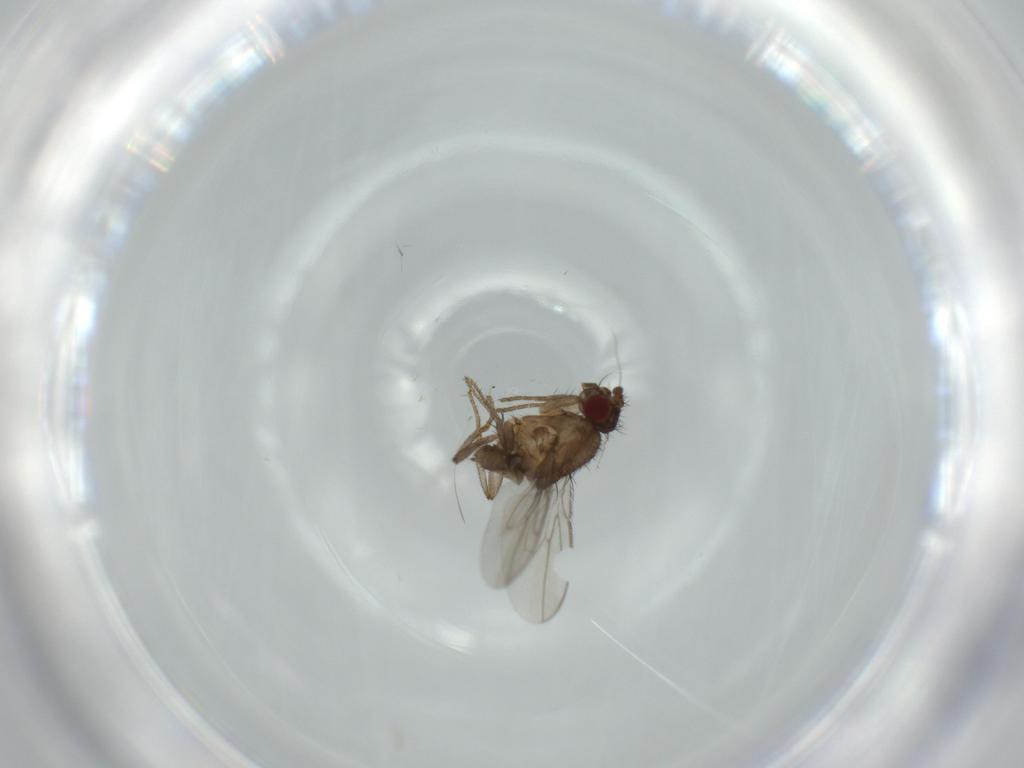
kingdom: Animalia
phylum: Arthropoda
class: Insecta
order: Diptera
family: Sphaeroceridae
